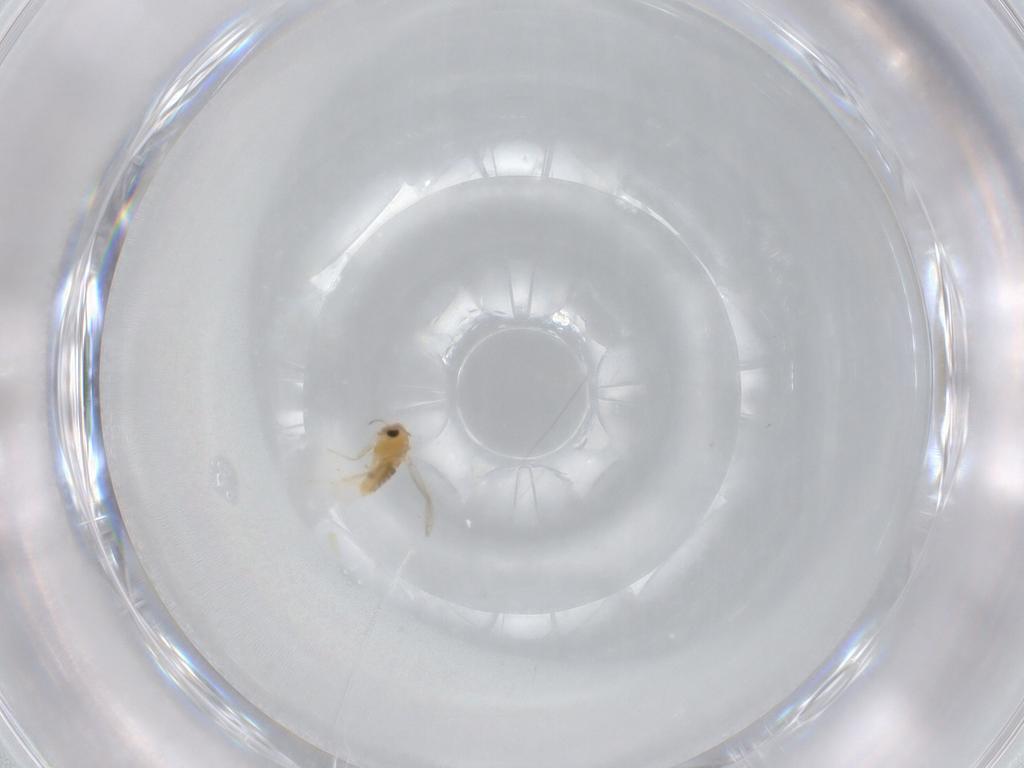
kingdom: Animalia
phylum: Arthropoda
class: Insecta
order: Diptera
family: Chironomidae
